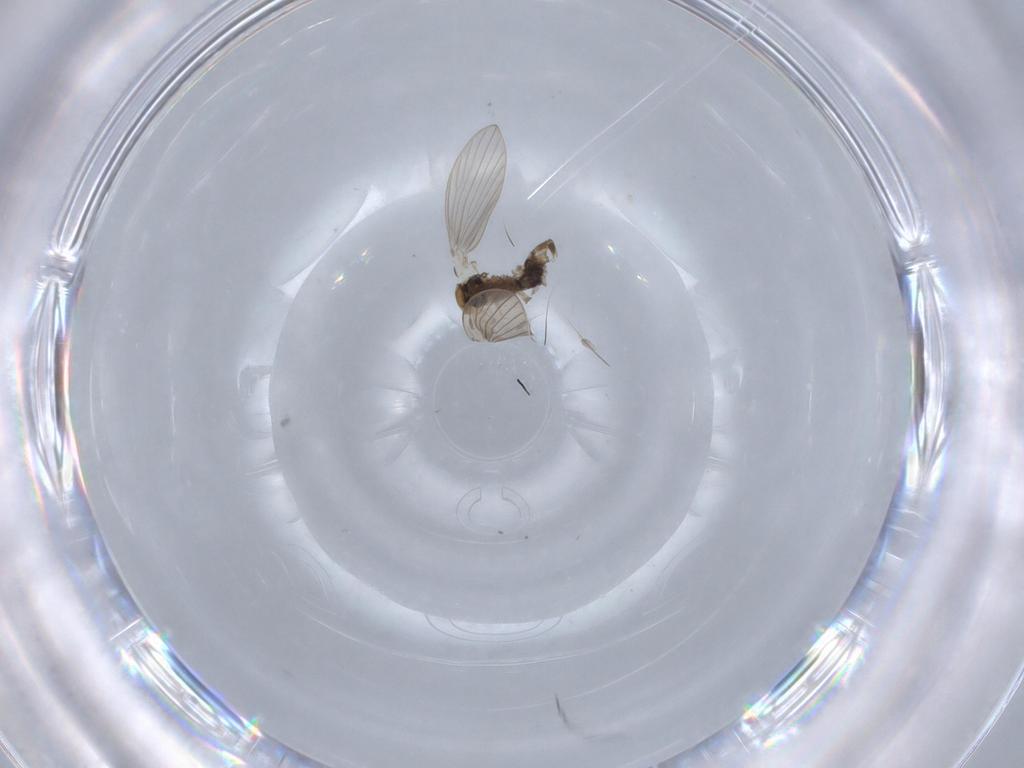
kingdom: Animalia
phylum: Arthropoda
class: Insecta
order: Diptera
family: Psychodidae
